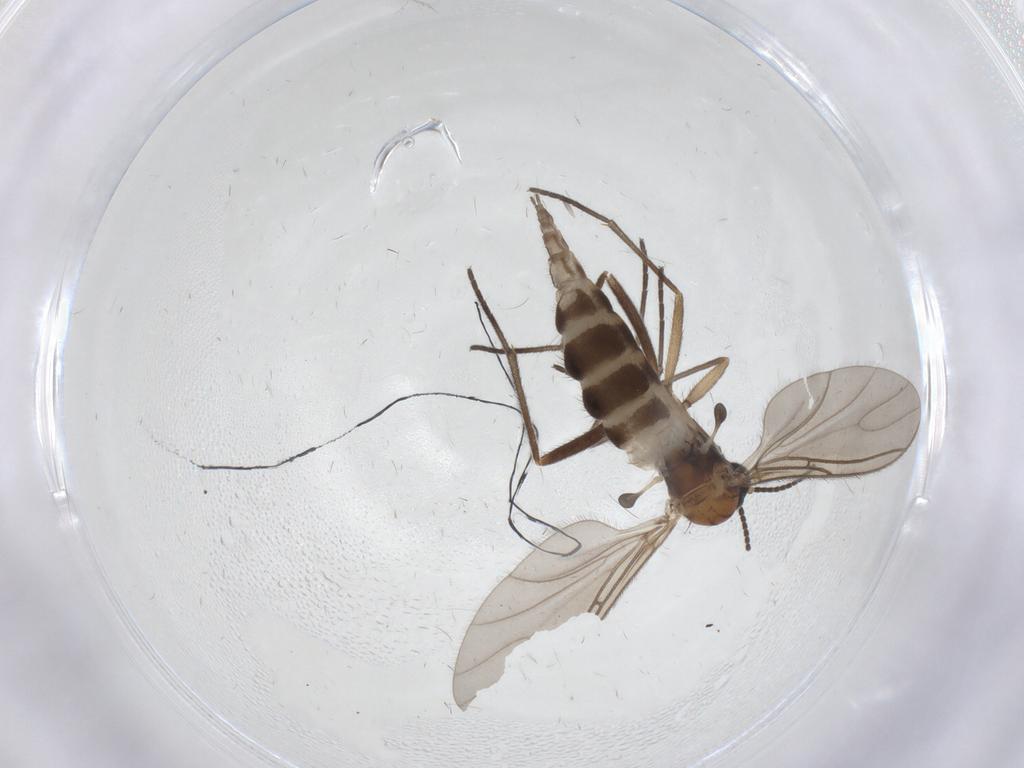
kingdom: Animalia
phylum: Arthropoda
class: Insecta
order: Diptera
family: Sciaridae
